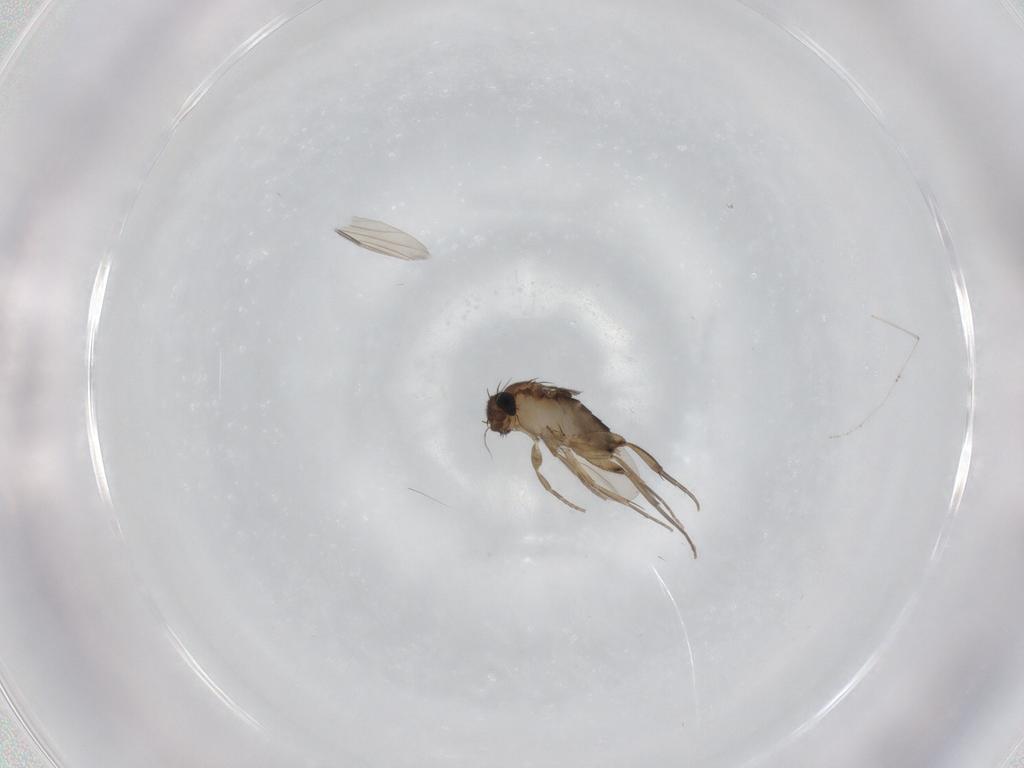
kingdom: Animalia
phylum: Arthropoda
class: Insecta
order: Diptera
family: Phoridae
